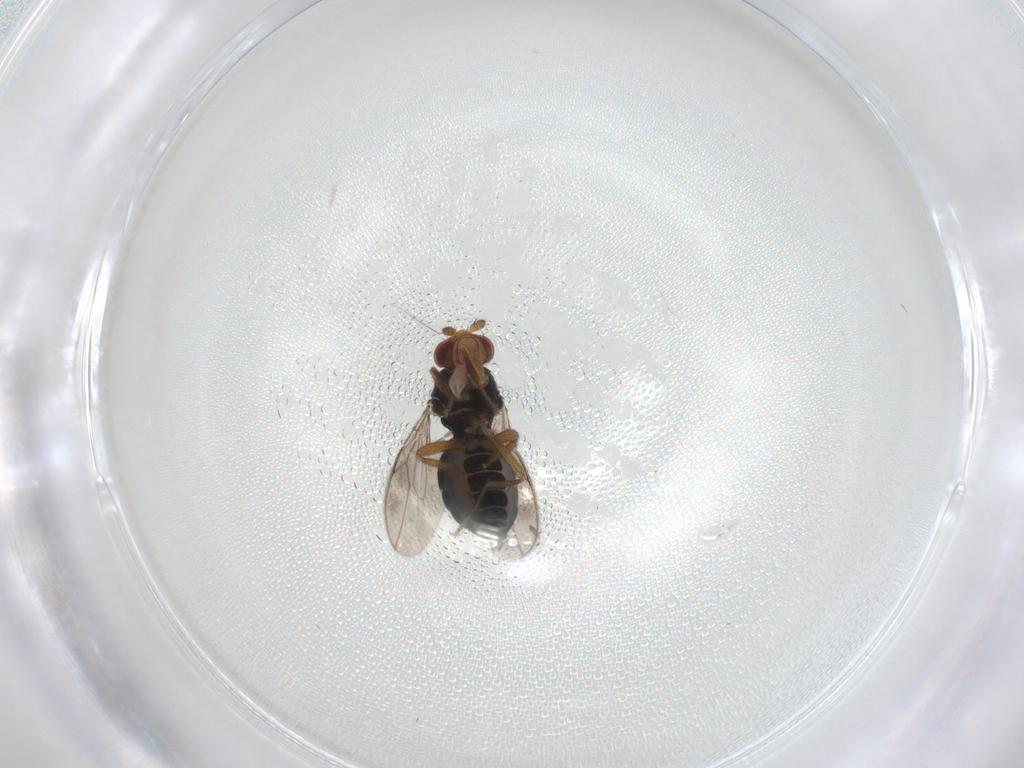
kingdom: Animalia
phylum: Arthropoda
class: Insecta
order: Diptera
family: Sphaeroceridae
